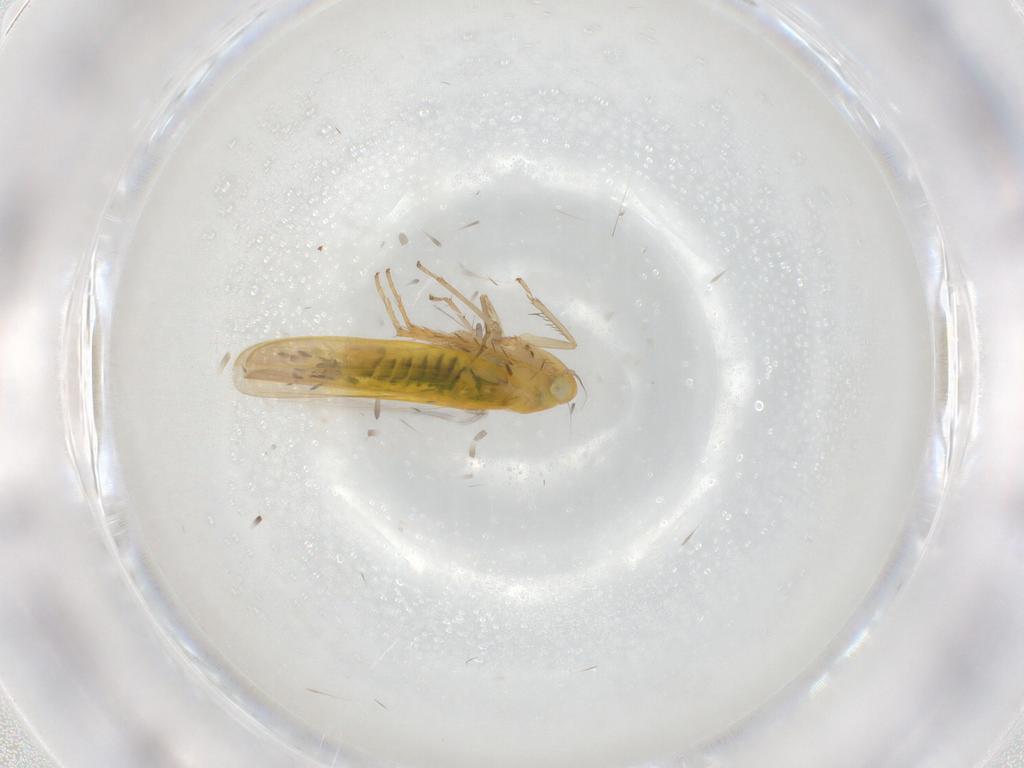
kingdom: Animalia
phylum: Arthropoda
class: Insecta
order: Hemiptera
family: Cicadellidae
